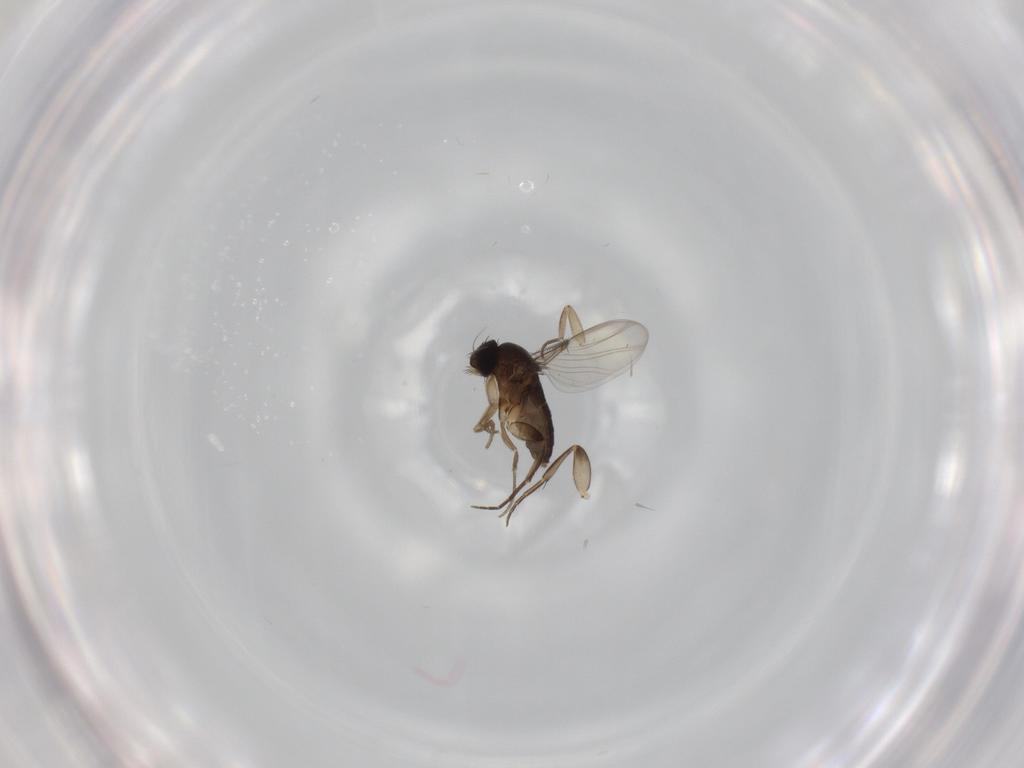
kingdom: Animalia
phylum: Arthropoda
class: Insecta
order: Diptera
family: Phoridae
